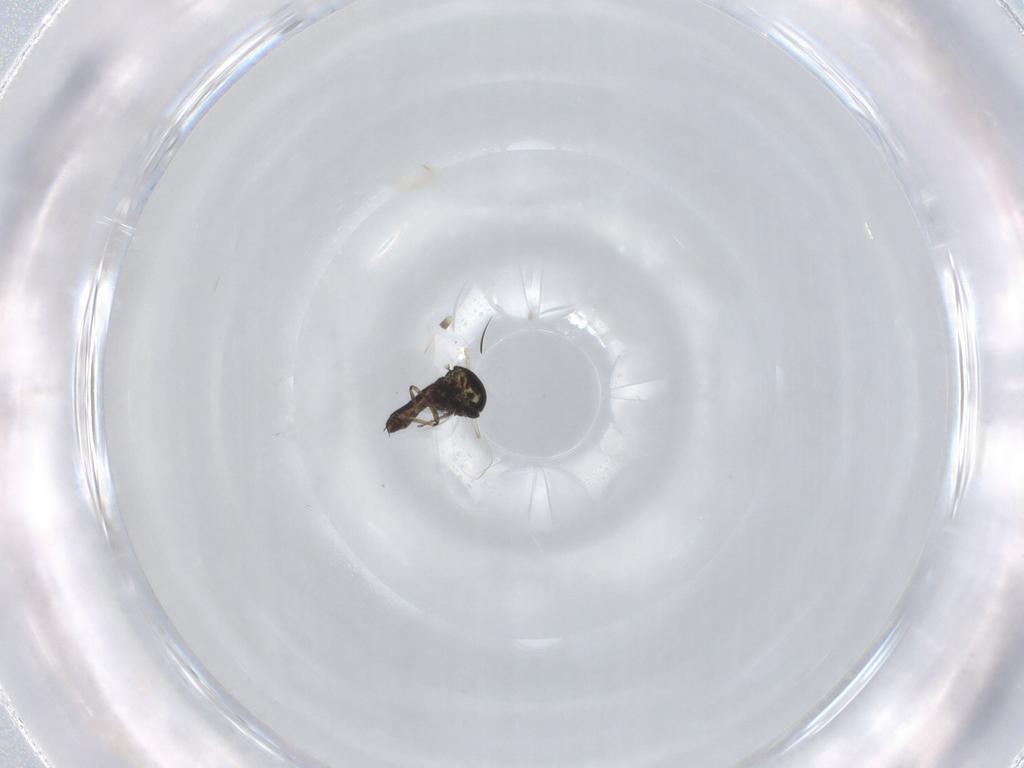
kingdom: Animalia
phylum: Arthropoda
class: Insecta
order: Diptera
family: Ceratopogonidae
